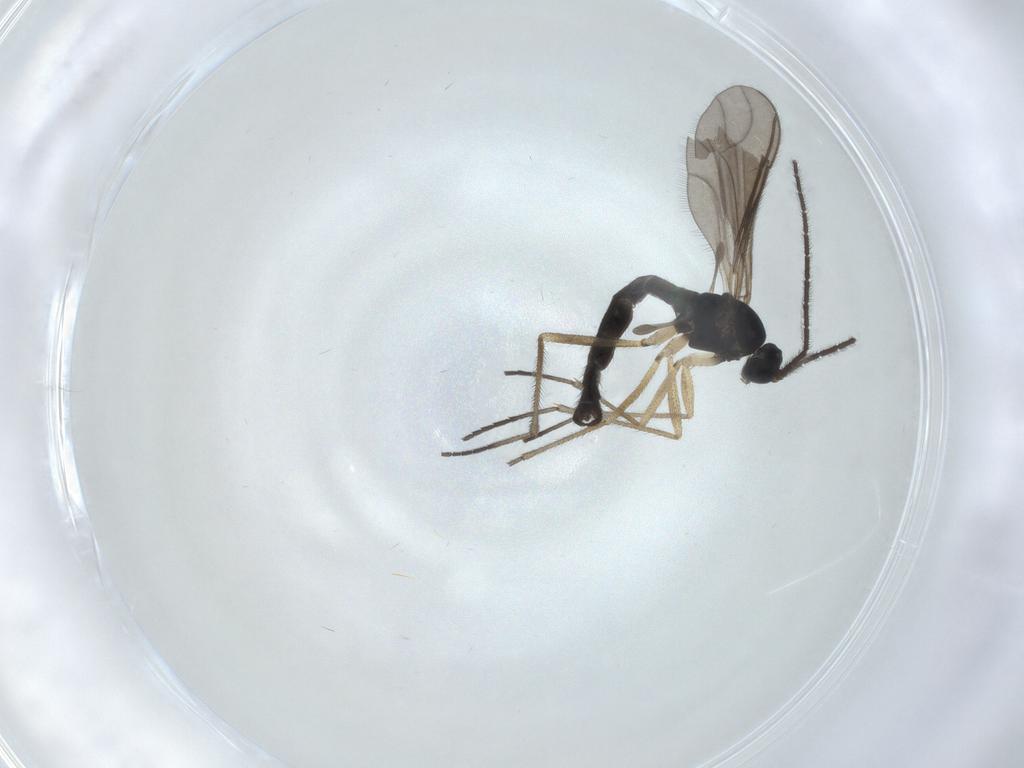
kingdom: Animalia
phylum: Arthropoda
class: Insecta
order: Diptera
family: Sciaridae
